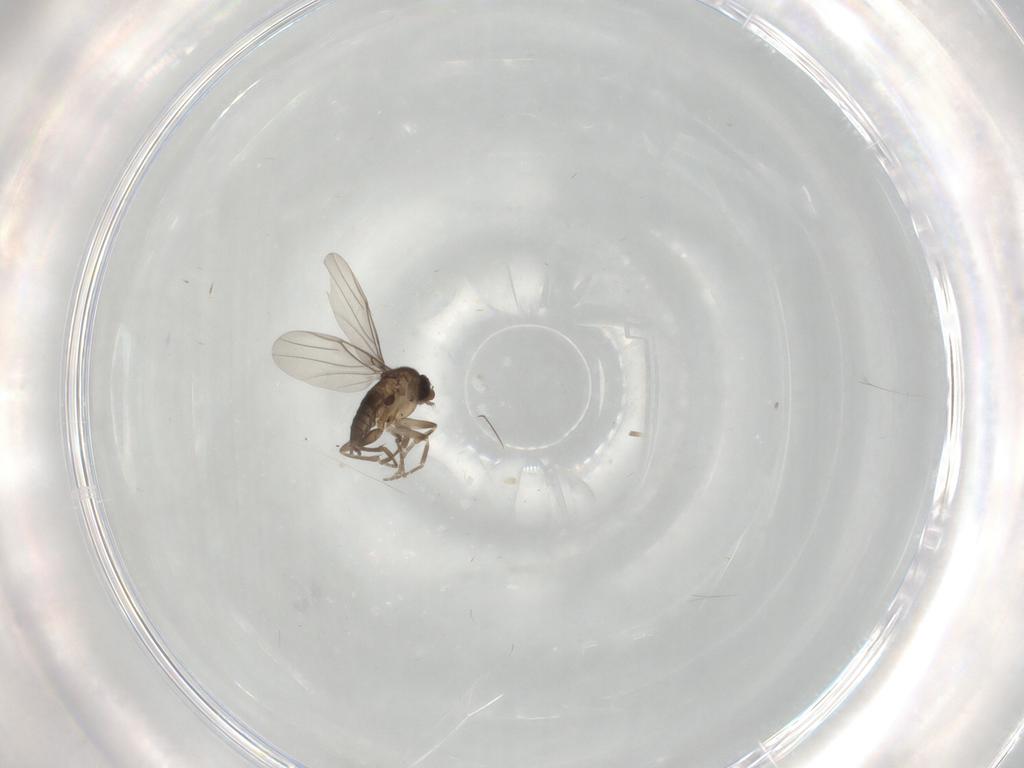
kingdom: Animalia
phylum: Arthropoda
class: Insecta
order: Diptera
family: Phoridae
